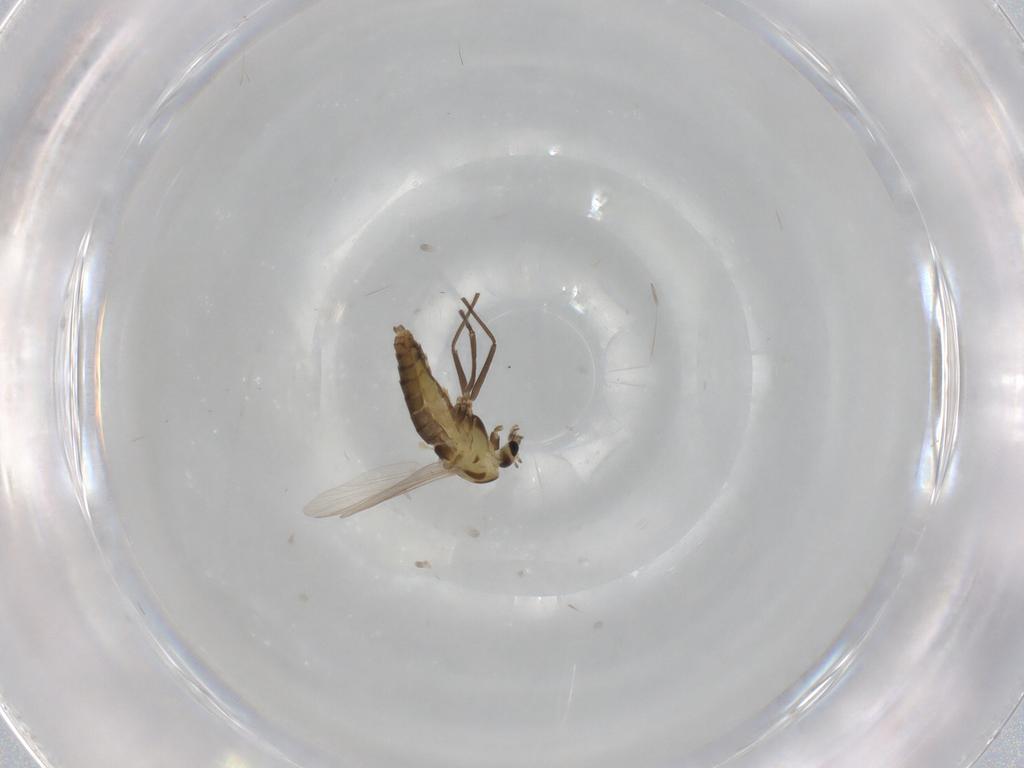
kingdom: Animalia
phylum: Arthropoda
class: Insecta
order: Diptera
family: Chironomidae
